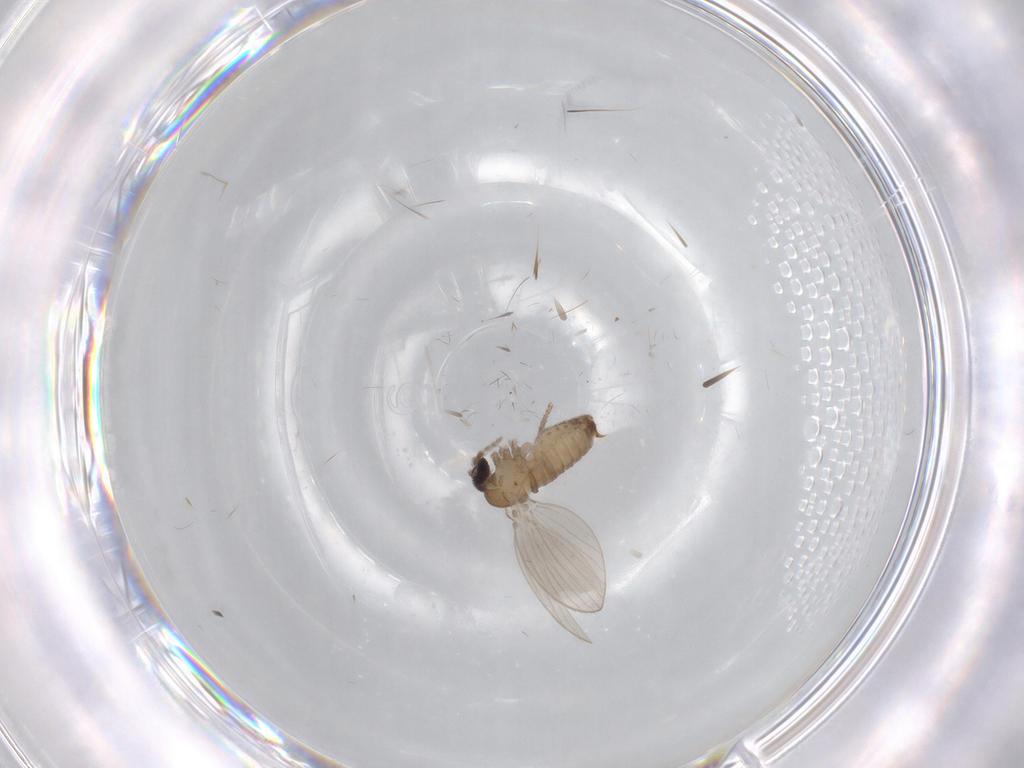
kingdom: Animalia
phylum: Arthropoda
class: Insecta
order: Diptera
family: Psychodidae
